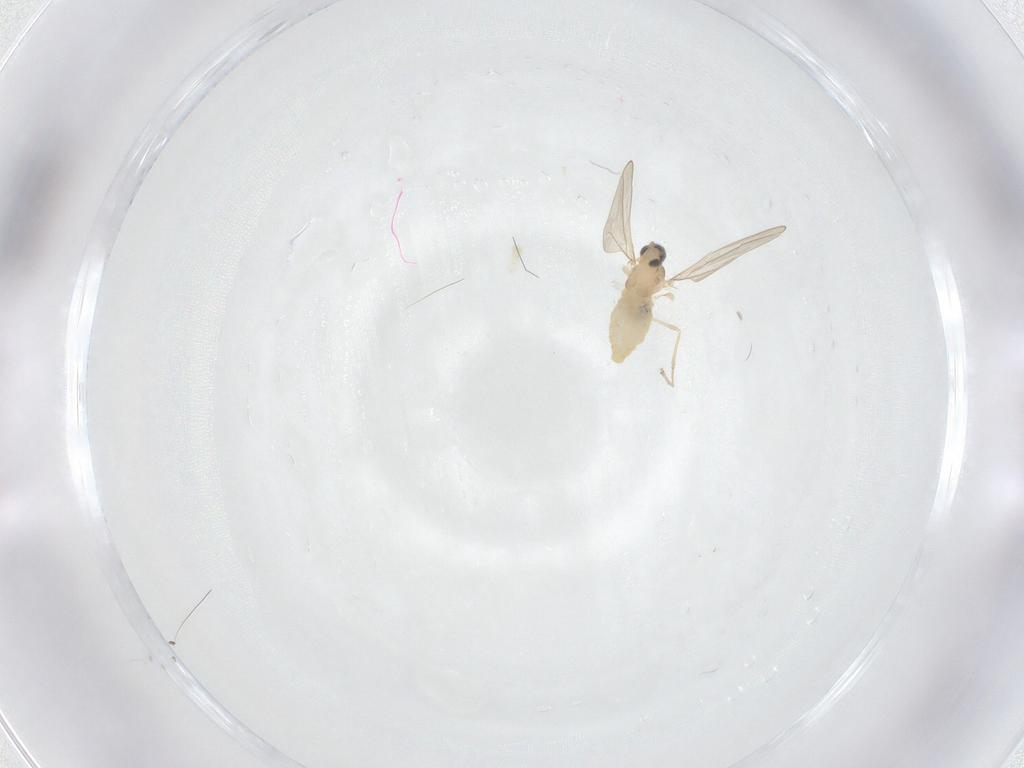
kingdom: Animalia
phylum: Arthropoda
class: Insecta
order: Diptera
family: Cecidomyiidae
